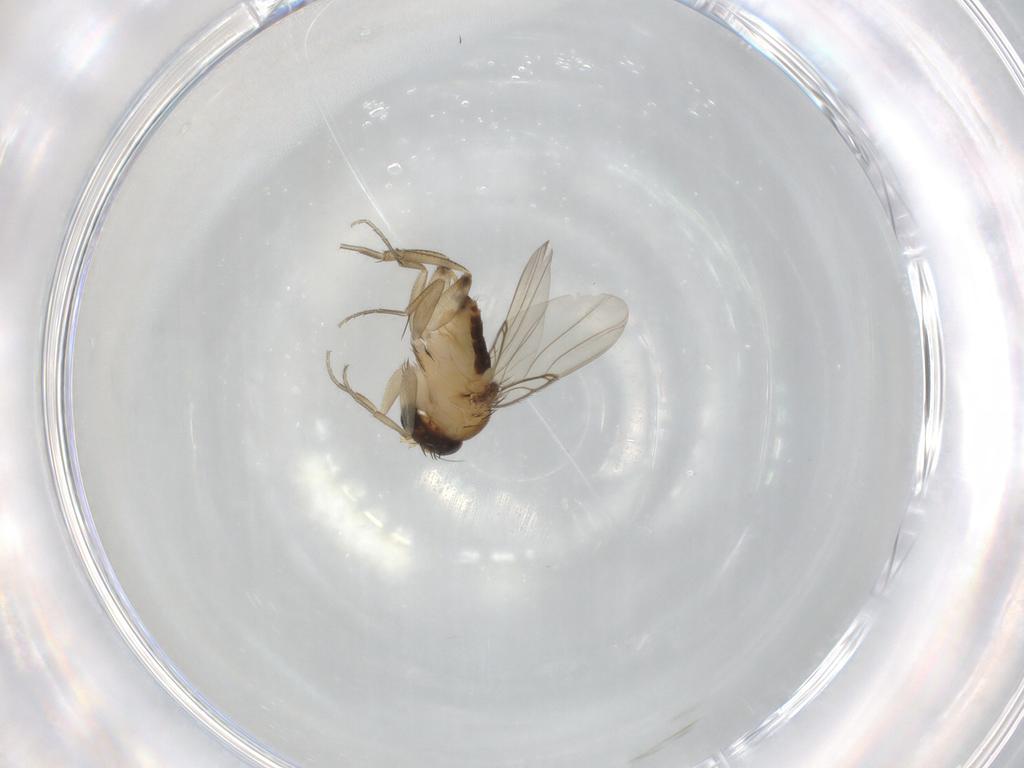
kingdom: Animalia
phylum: Arthropoda
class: Insecta
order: Diptera
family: Phoridae
